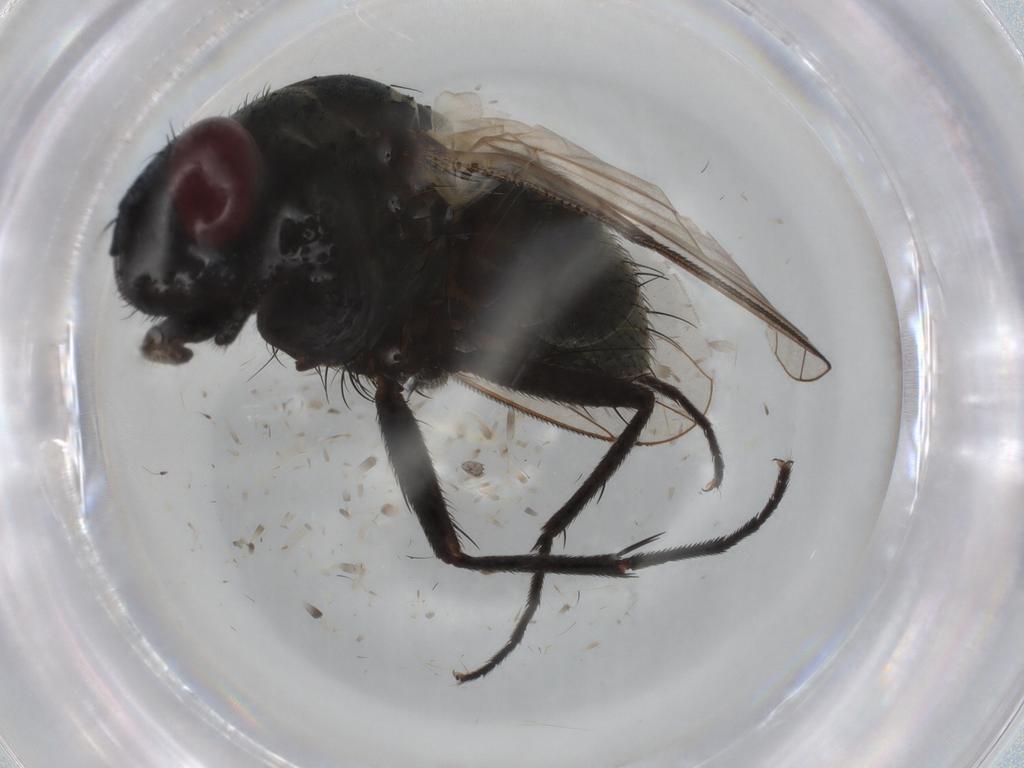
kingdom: Animalia
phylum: Arthropoda
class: Insecta
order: Diptera
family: Muscidae
